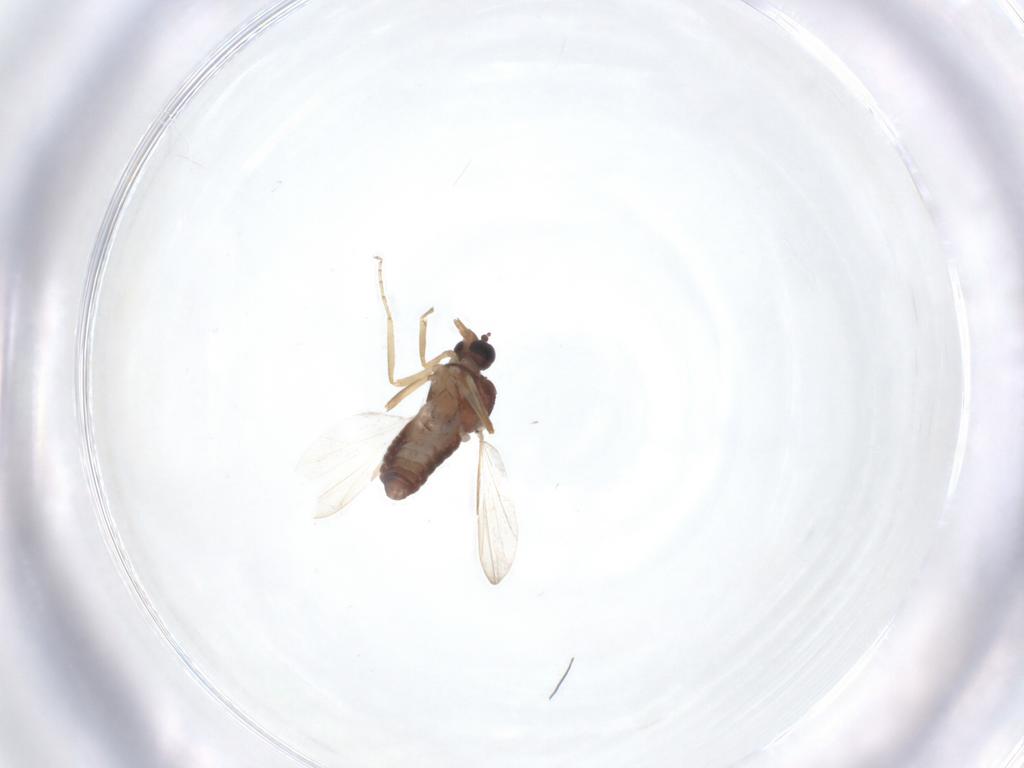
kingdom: Animalia
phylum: Arthropoda
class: Insecta
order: Diptera
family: Ceratopogonidae
